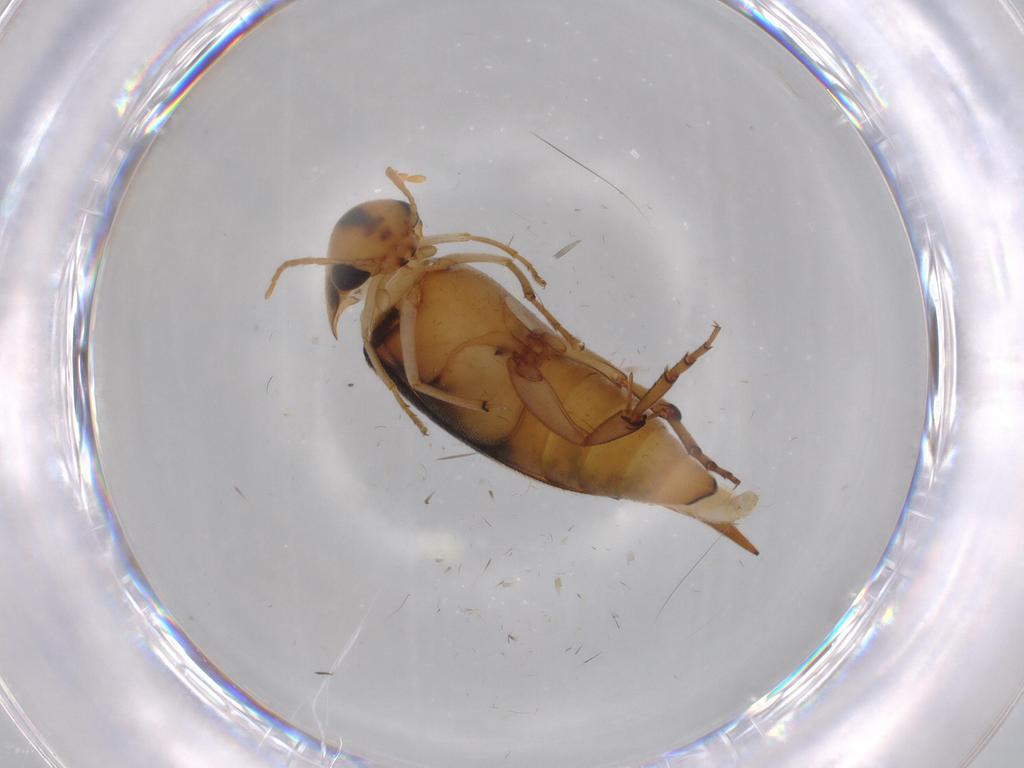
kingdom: Animalia
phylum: Arthropoda
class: Insecta
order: Coleoptera
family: Mordellidae
